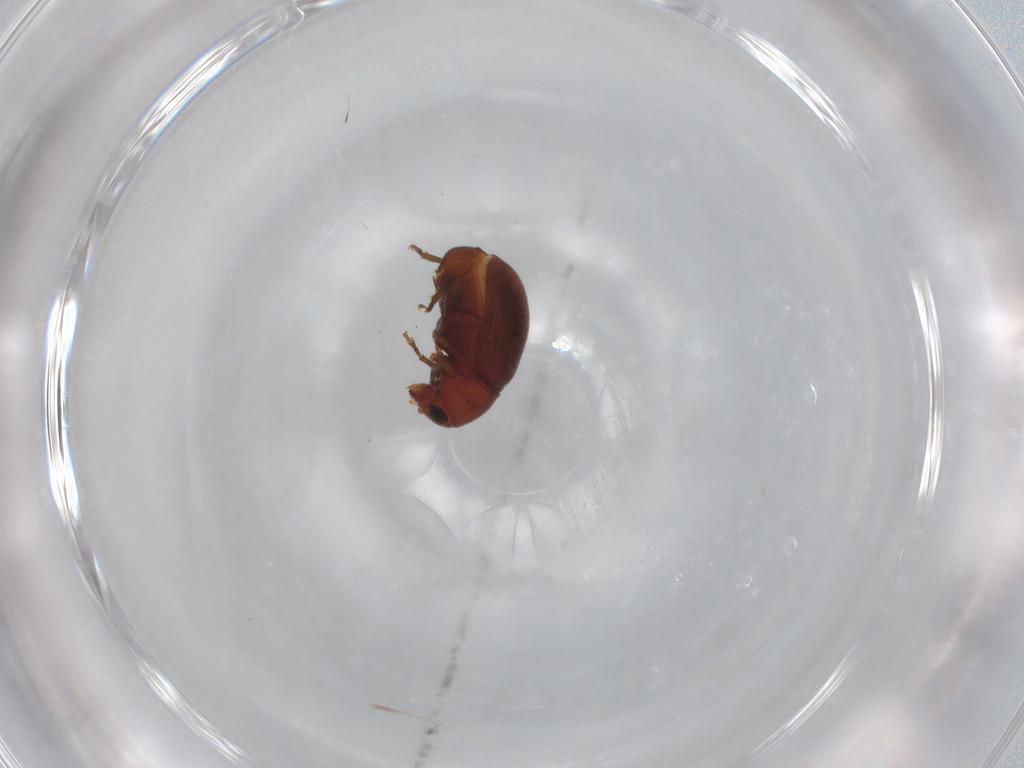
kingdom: Animalia
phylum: Arthropoda
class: Insecta
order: Coleoptera
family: Anthribidae
